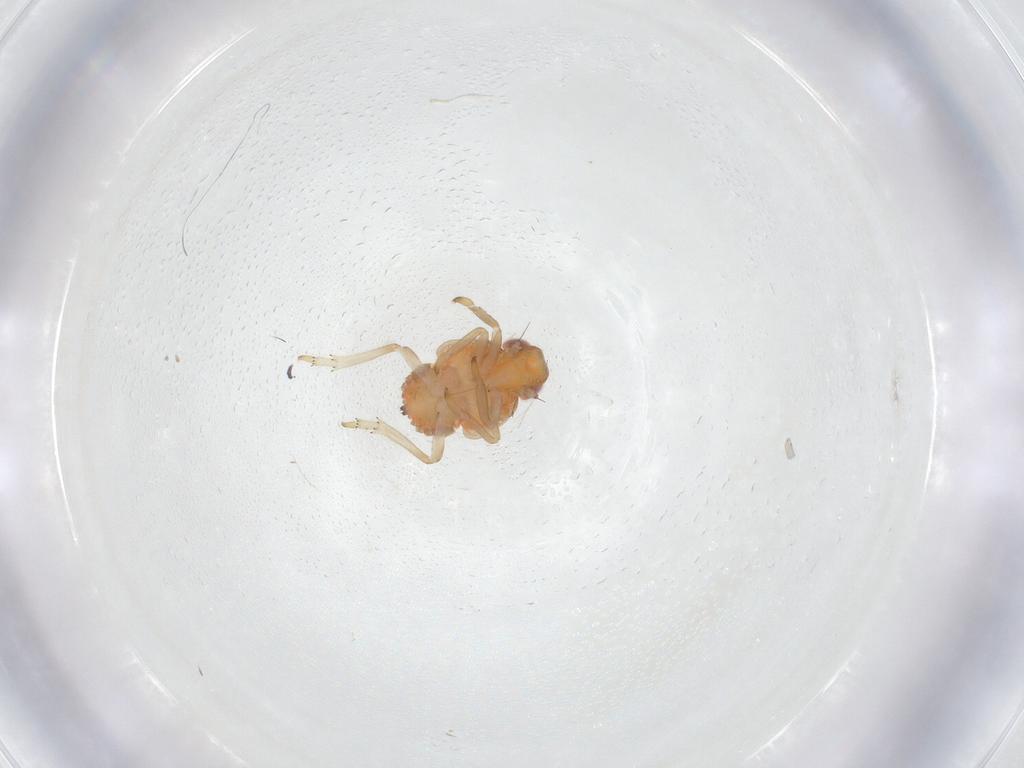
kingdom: Animalia
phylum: Arthropoda
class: Insecta
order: Hemiptera
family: Fulgoroidea_incertae_sedis
